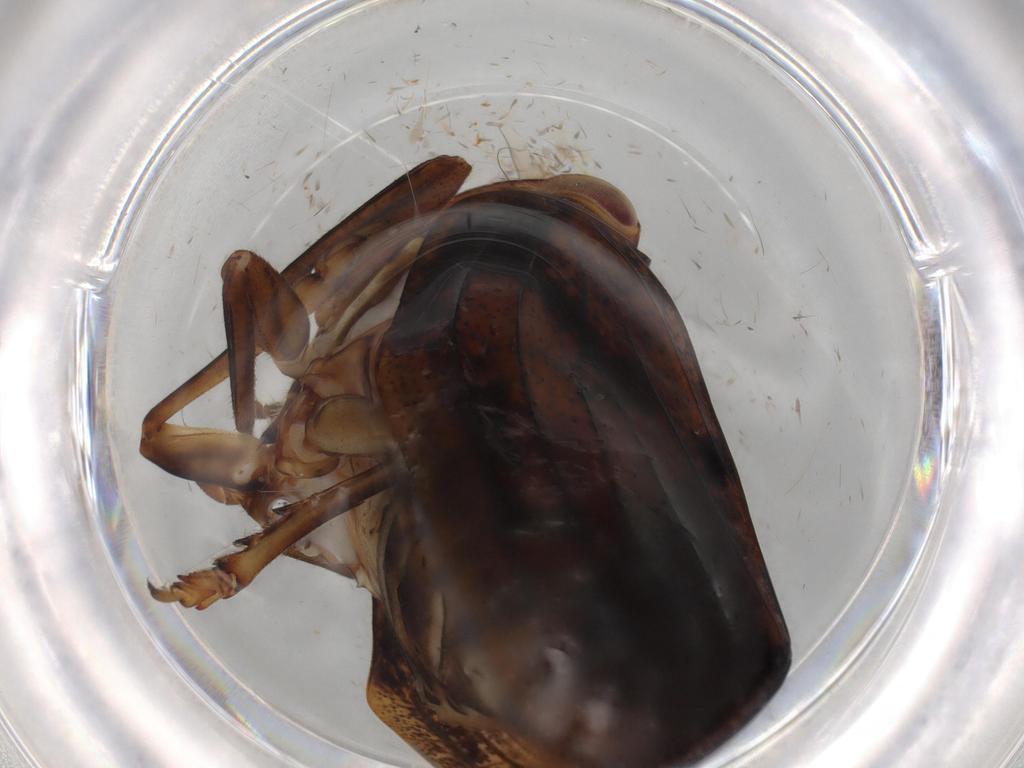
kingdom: Animalia
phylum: Arthropoda
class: Insecta
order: Hemiptera
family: Issidae
